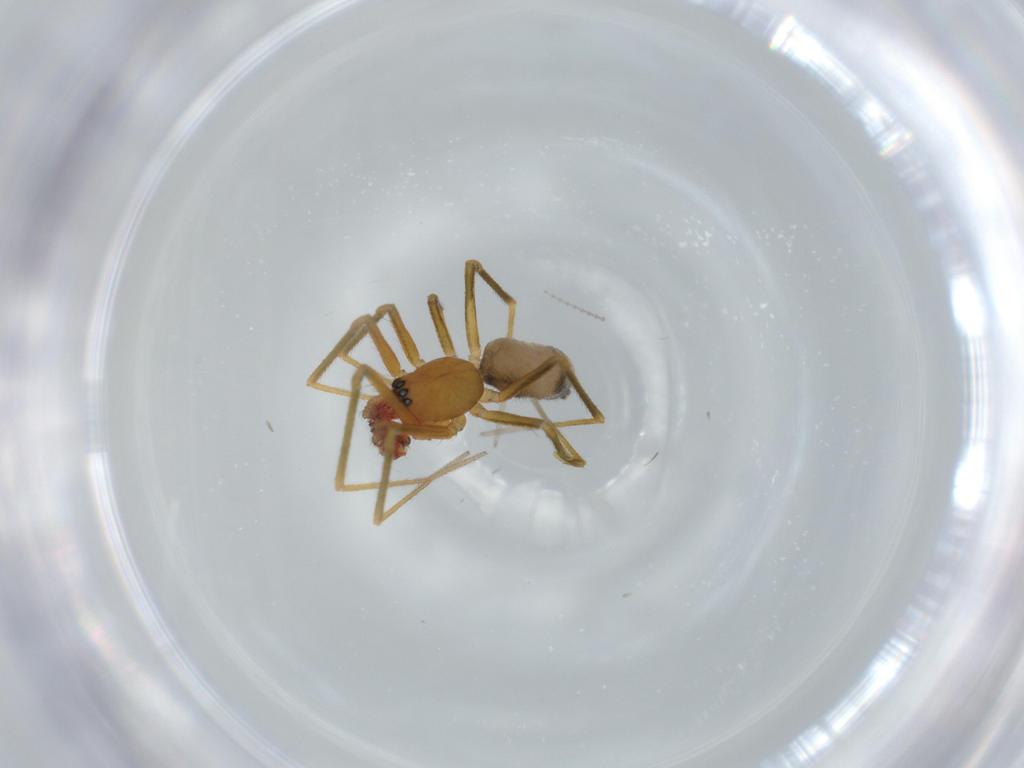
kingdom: Animalia
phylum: Arthropoda
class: Arachnida
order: Araneae
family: Linyphiidae
